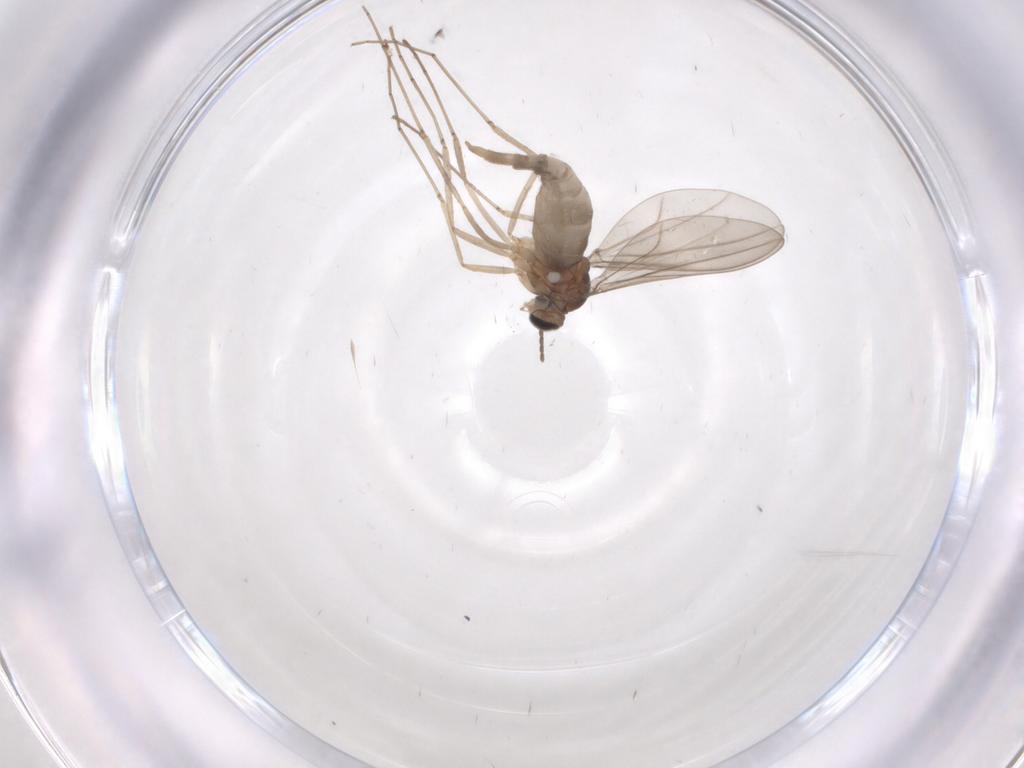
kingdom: Animalia
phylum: Arthropoda
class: Insecta
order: Diptera
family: Cecidomyiidae
